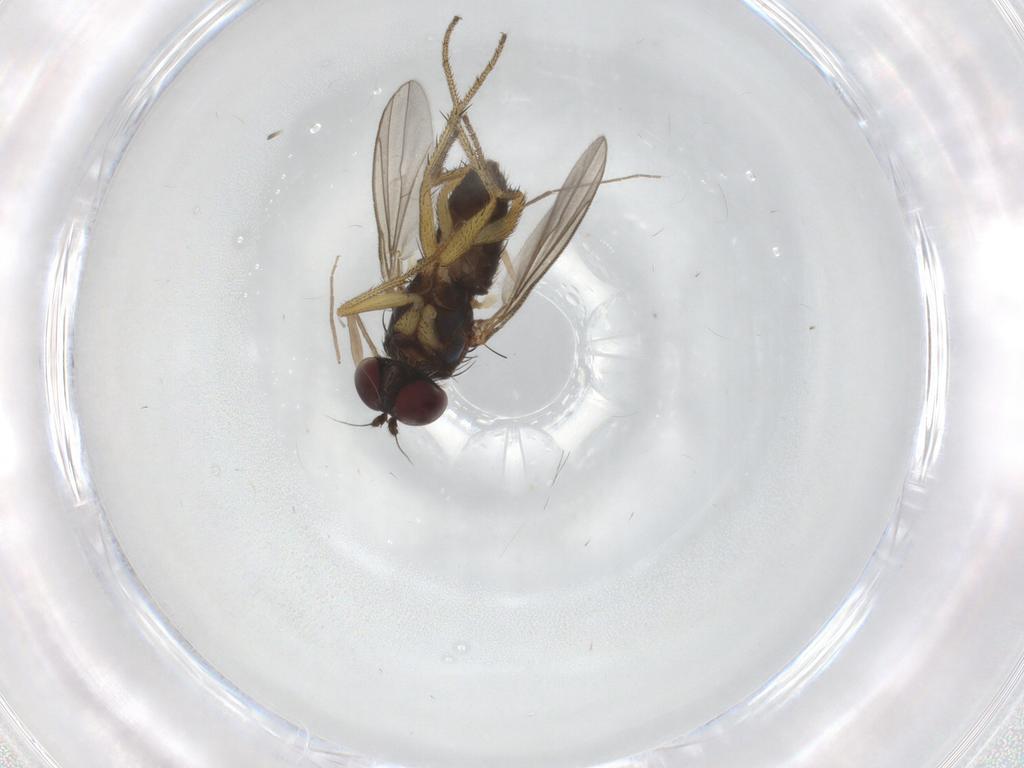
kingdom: Animalia
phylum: Arthropoda
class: Insecta
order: Diptera
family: Dolichopodidae
